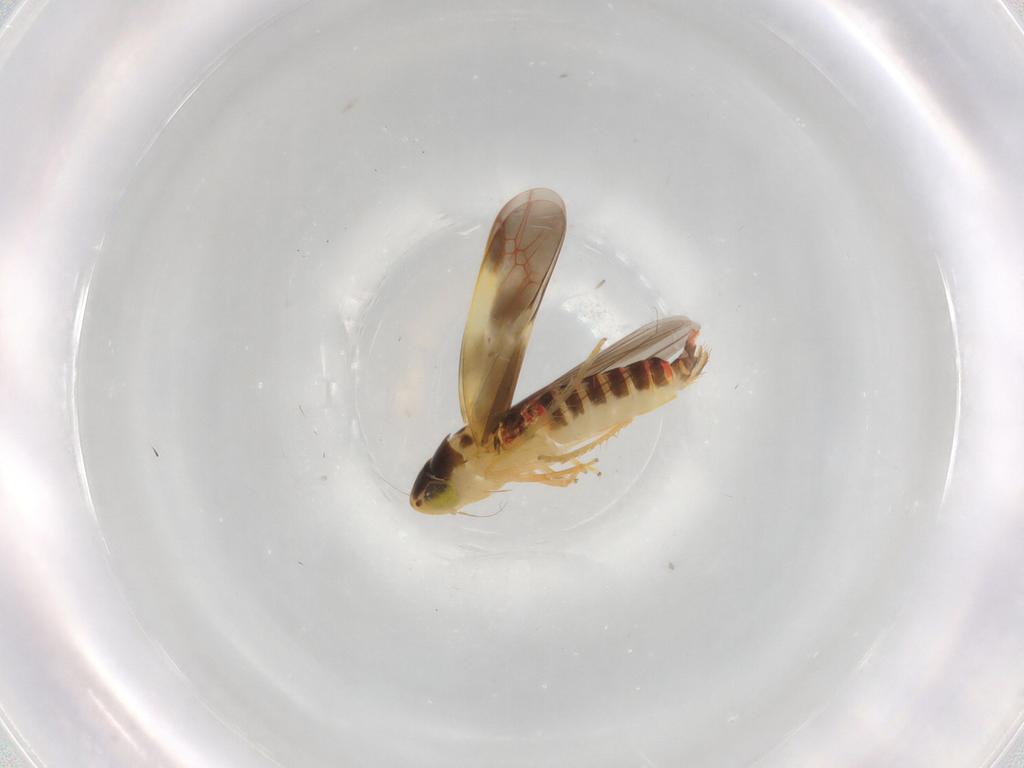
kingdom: Animalia
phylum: Arthropoda
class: Insecta
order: Hemiptera
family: Cicadellidae
